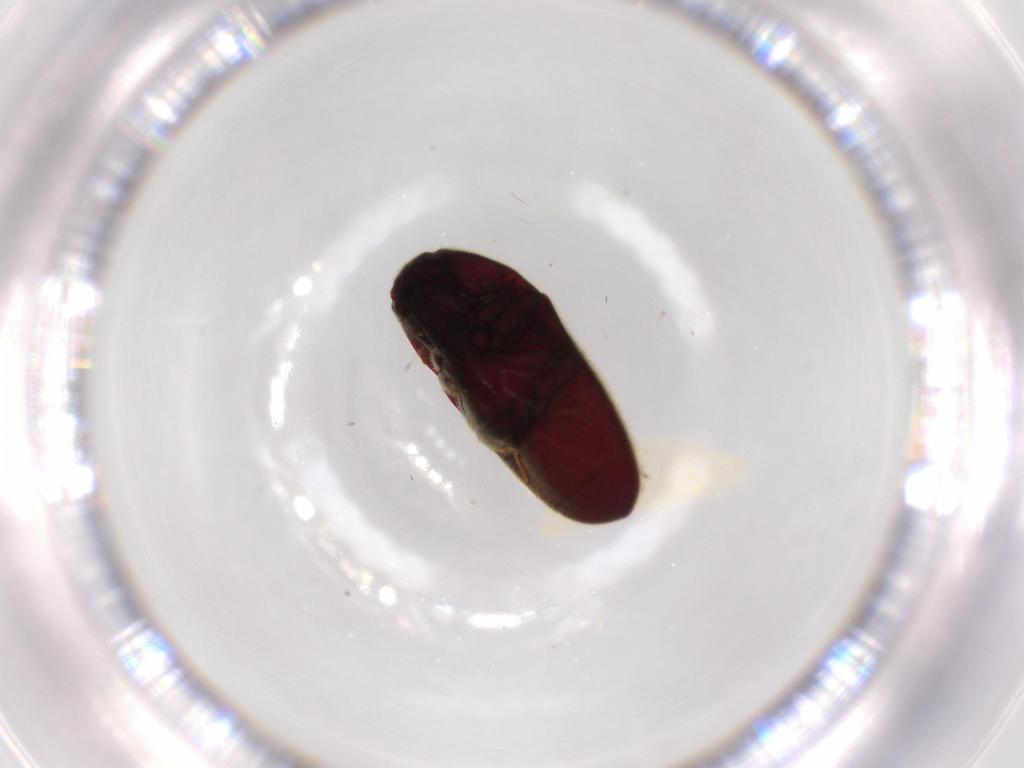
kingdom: Animalia
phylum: Arthropoda
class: Insecta
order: Coleoptera
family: Throscidae
